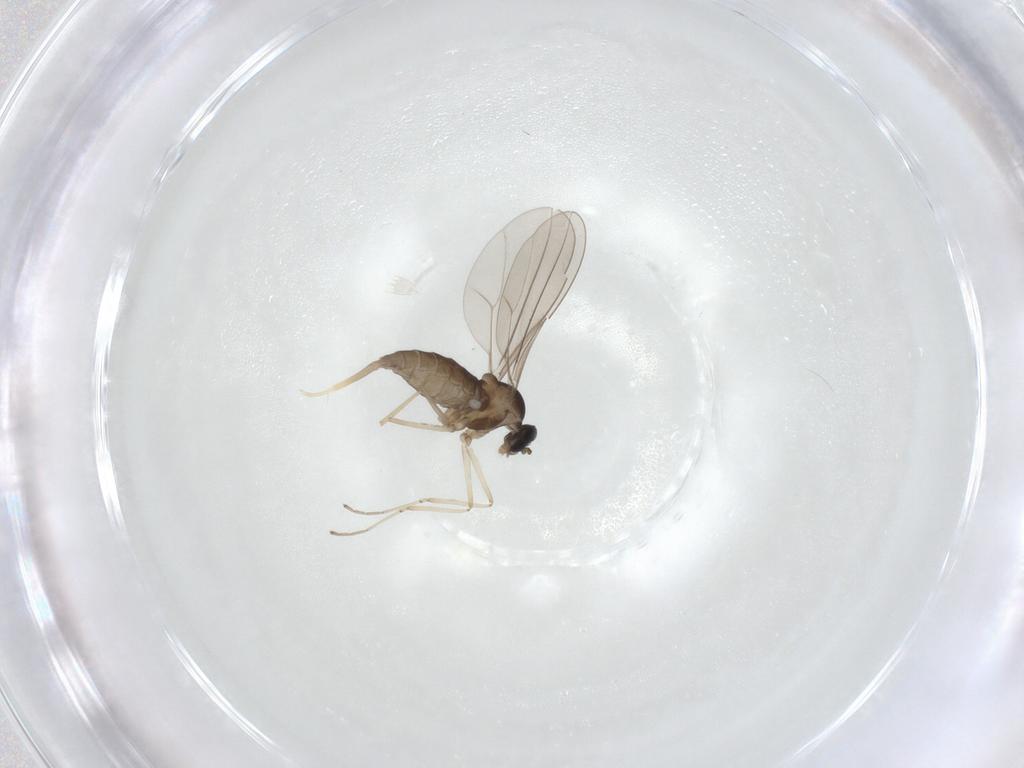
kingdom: Animalia
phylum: Arthropoda
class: Insecta
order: Diptera
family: Cecidomyiidae
